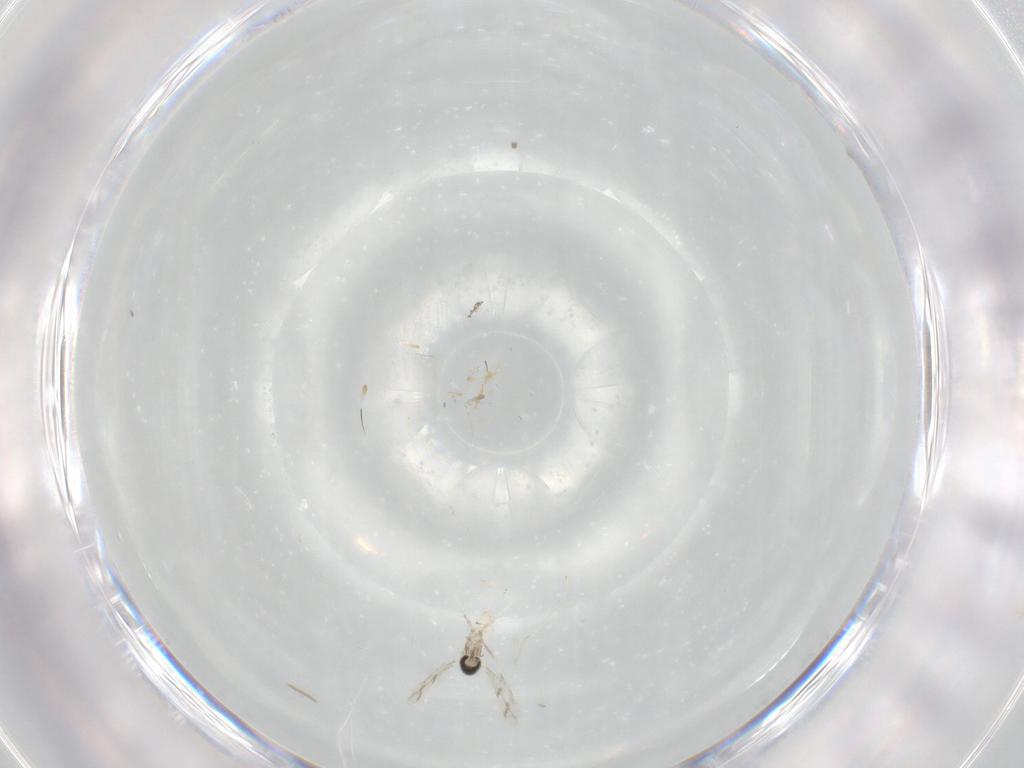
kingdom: Animalia
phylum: Arthropoda
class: Insecta
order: Diptera
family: Cecidomyiidae
